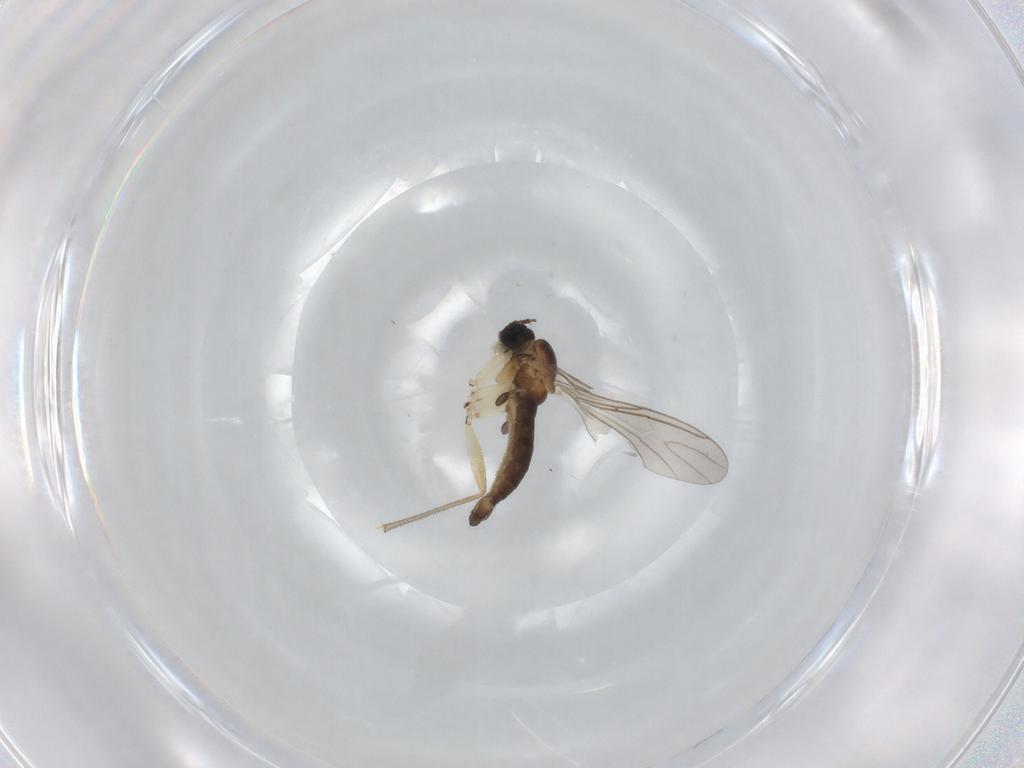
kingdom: Animalia
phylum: Arthropoda
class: Insecta
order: Diptera
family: Sciaridae
